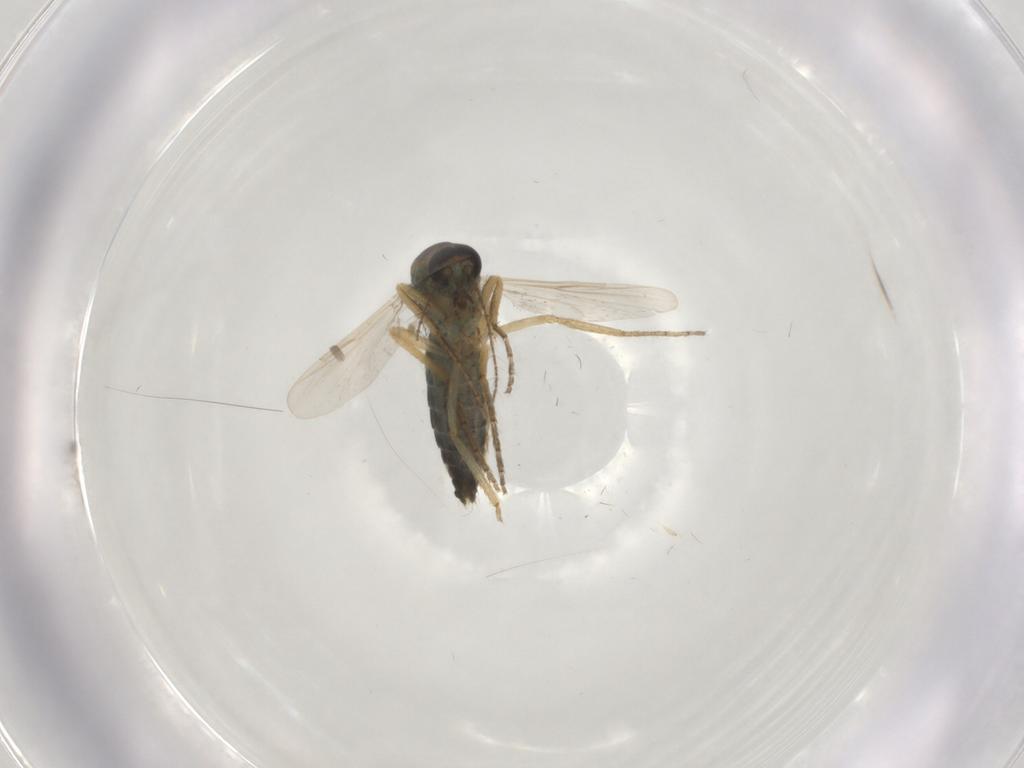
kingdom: Animalia
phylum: Arthropoda
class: Insecta
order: Diptera
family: Ceratopogonidae
